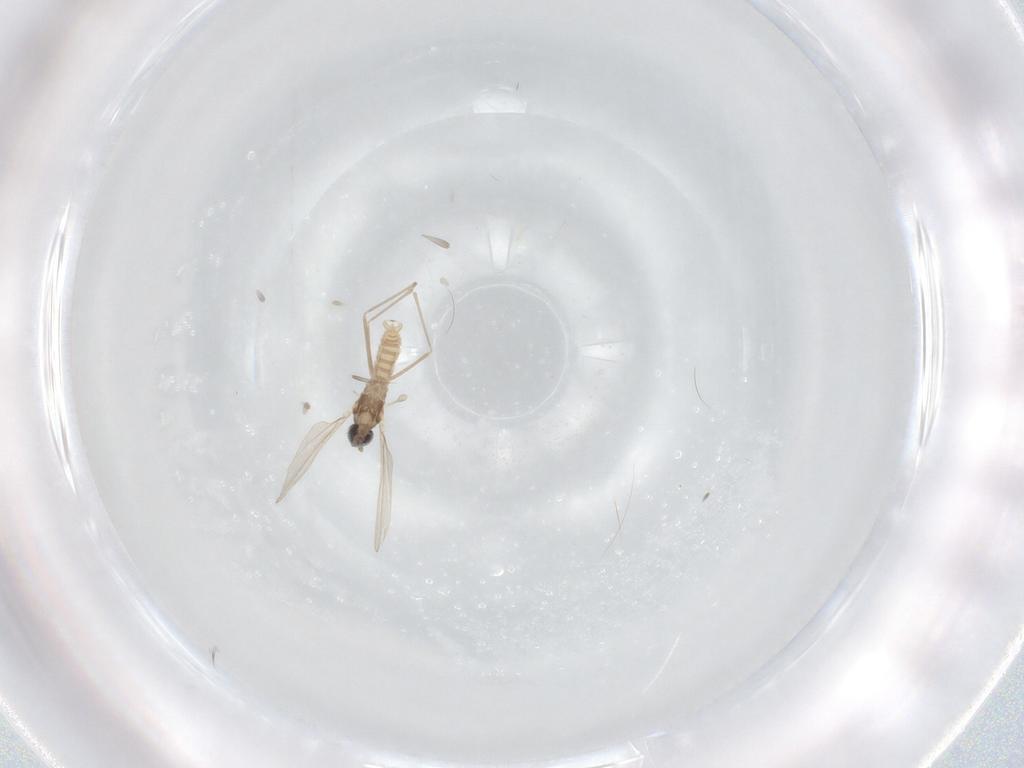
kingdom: Animalia
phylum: Arthropoda
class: Insecta
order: Diptera
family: Cecidomyiidae
